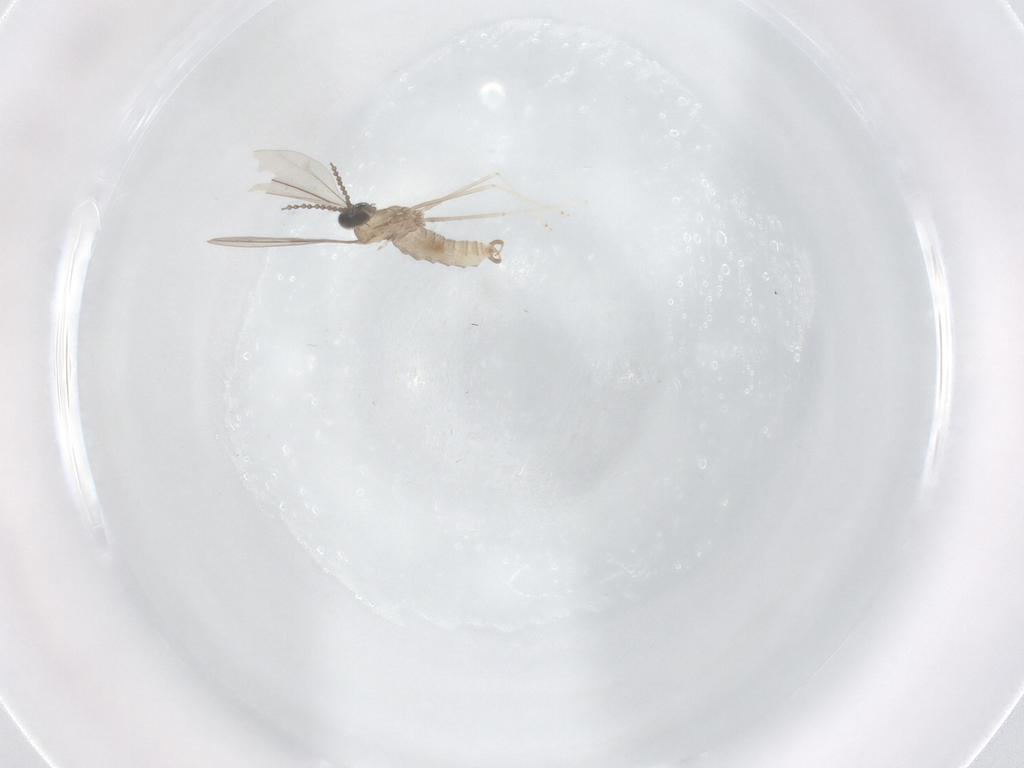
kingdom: Animalia
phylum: Arthropoda
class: Insecta
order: Diptera
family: Cecidomyiidae
